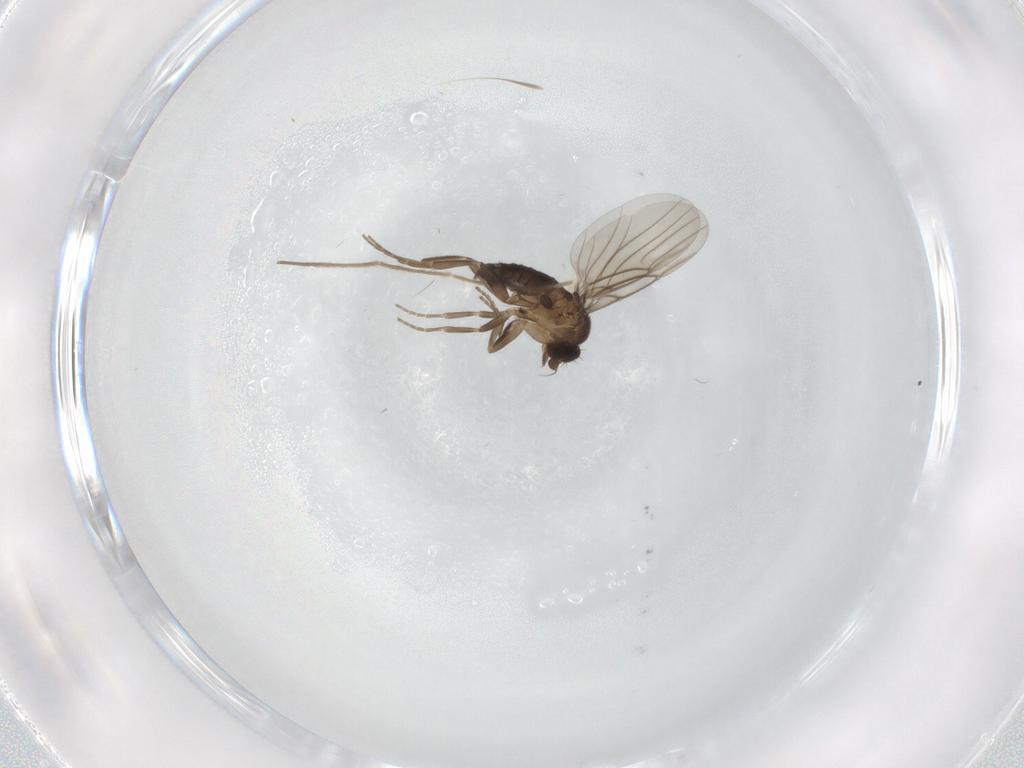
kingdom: Animalia
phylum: Arthropoda
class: Insecta
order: Diptera
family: Phoridae
